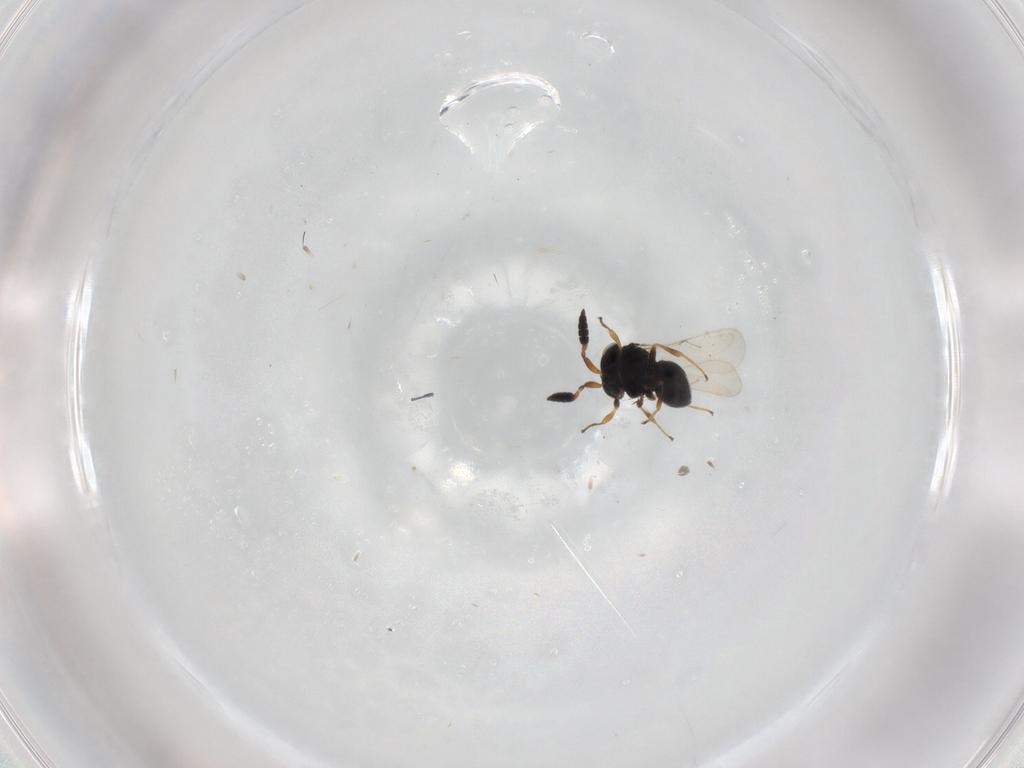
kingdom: Animalia
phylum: Arthropoda
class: Insecta
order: Hymenoptera
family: Scelionidae
